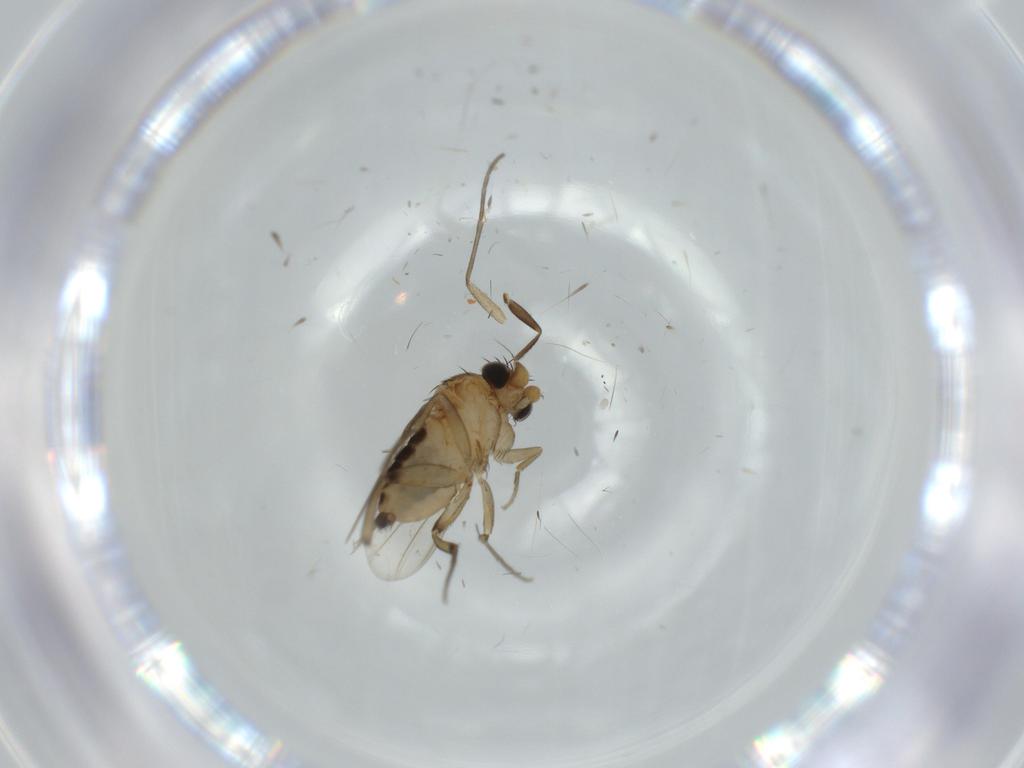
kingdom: Animalia
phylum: Arthropoda
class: Insecta
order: Diptera
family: Cecidomyiidae
